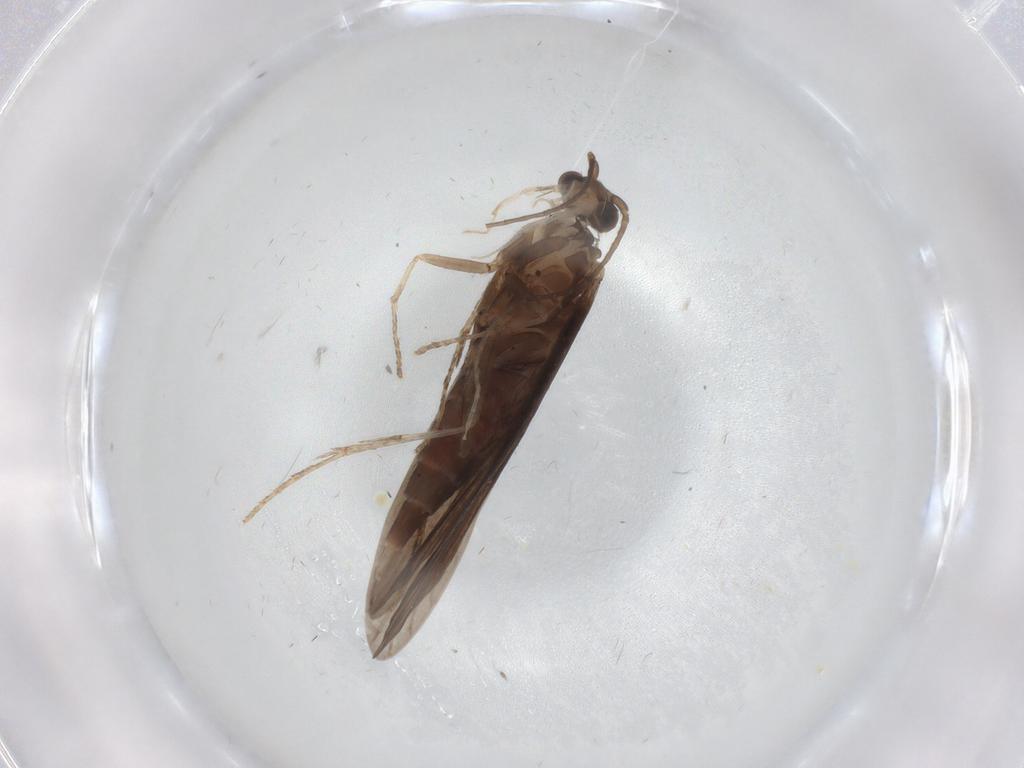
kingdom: Animalia
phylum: Arthropoda
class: Insecta
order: Trichoptera
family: Xiphocentronidae
